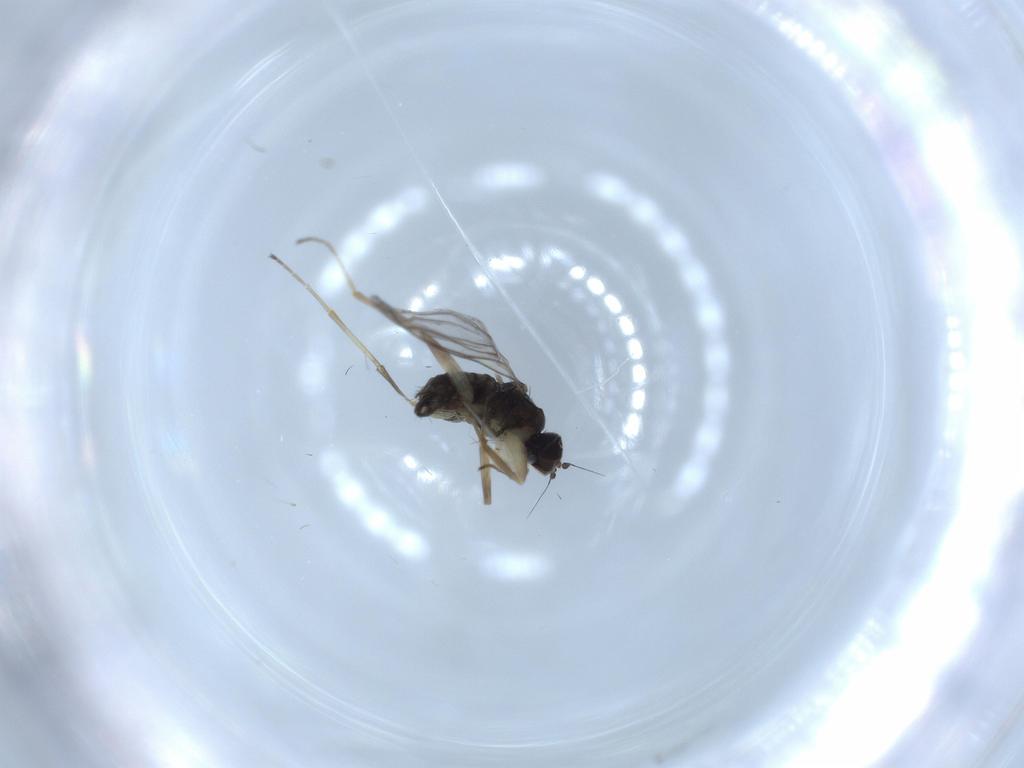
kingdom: Animalia
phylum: Arthropoda
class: Insecta
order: Diptera
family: Hybotidae
